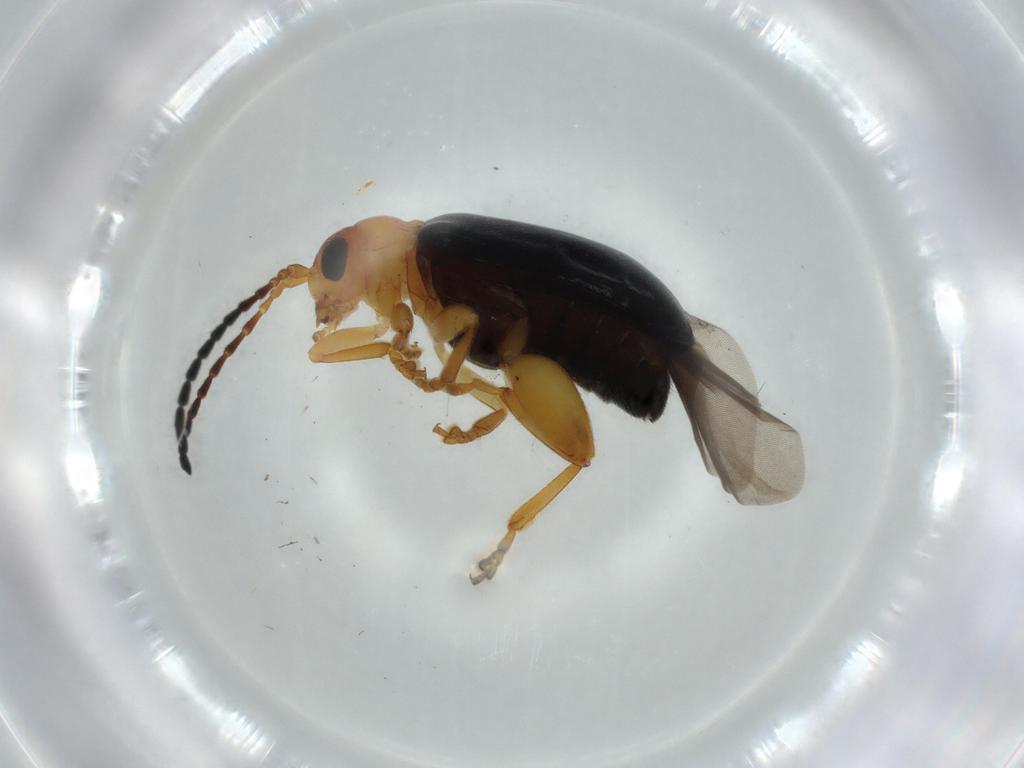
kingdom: Animalia
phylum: Arthropoda
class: Insecta
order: Coleoptera
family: Chrysomelidae
